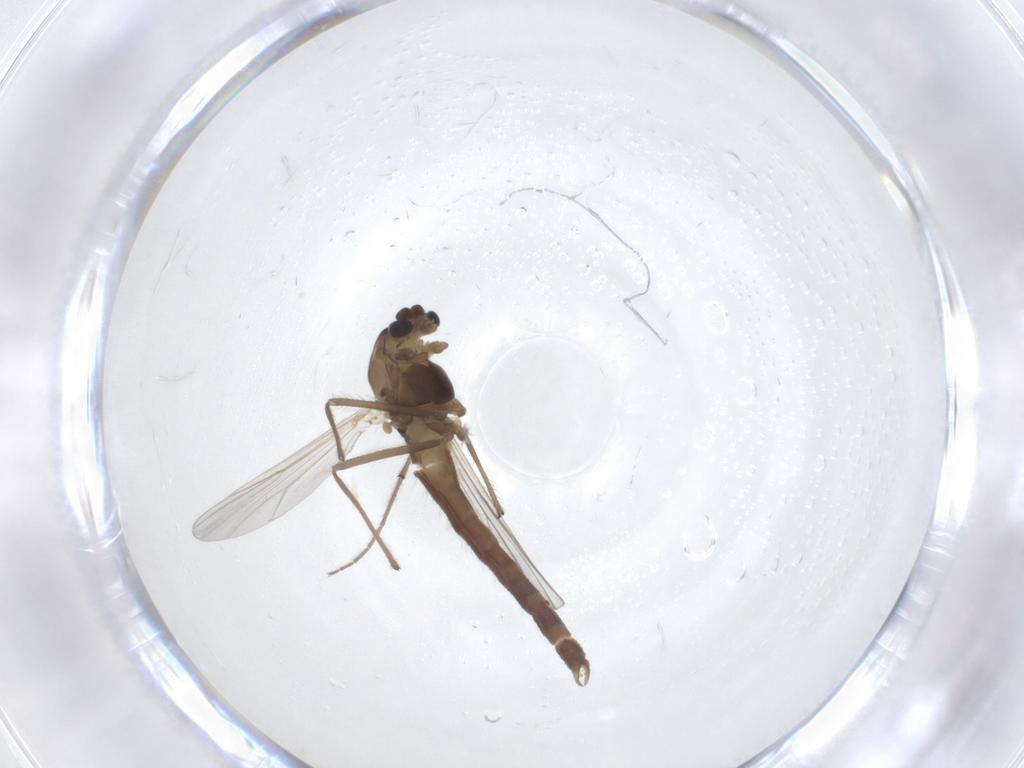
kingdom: Animalia
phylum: Arthropoda
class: Insecta
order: Diptera
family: Chironomidae
